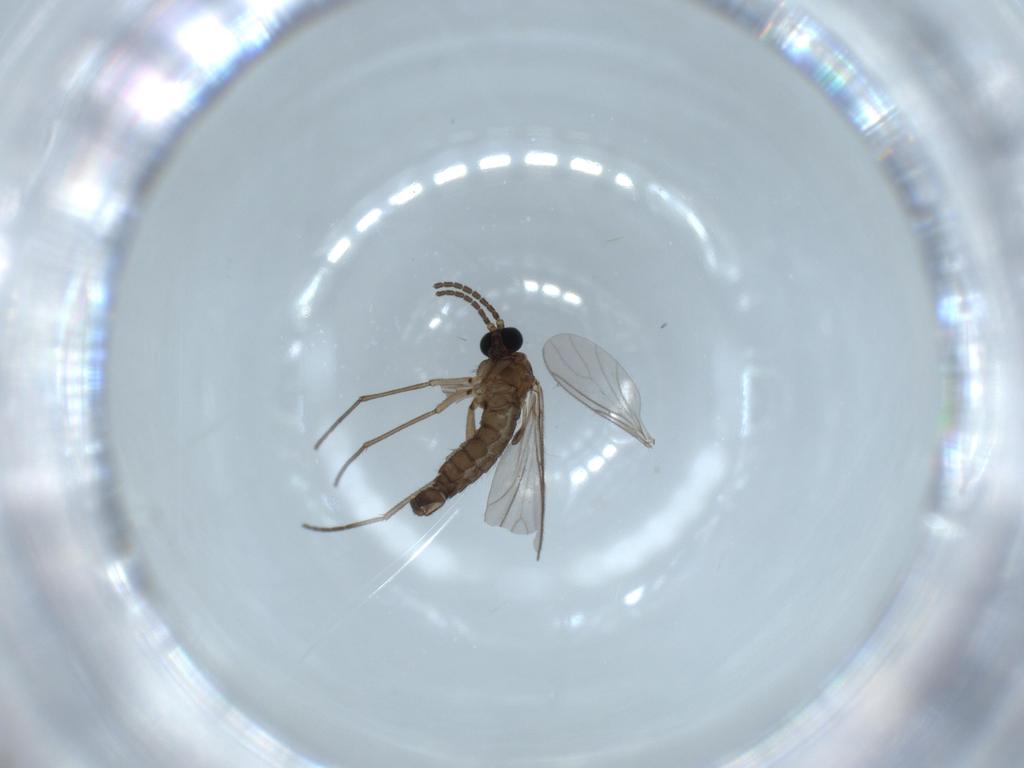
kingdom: Animalia
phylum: Arthropoda
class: Insecta
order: Diptera
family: Sciaridae
